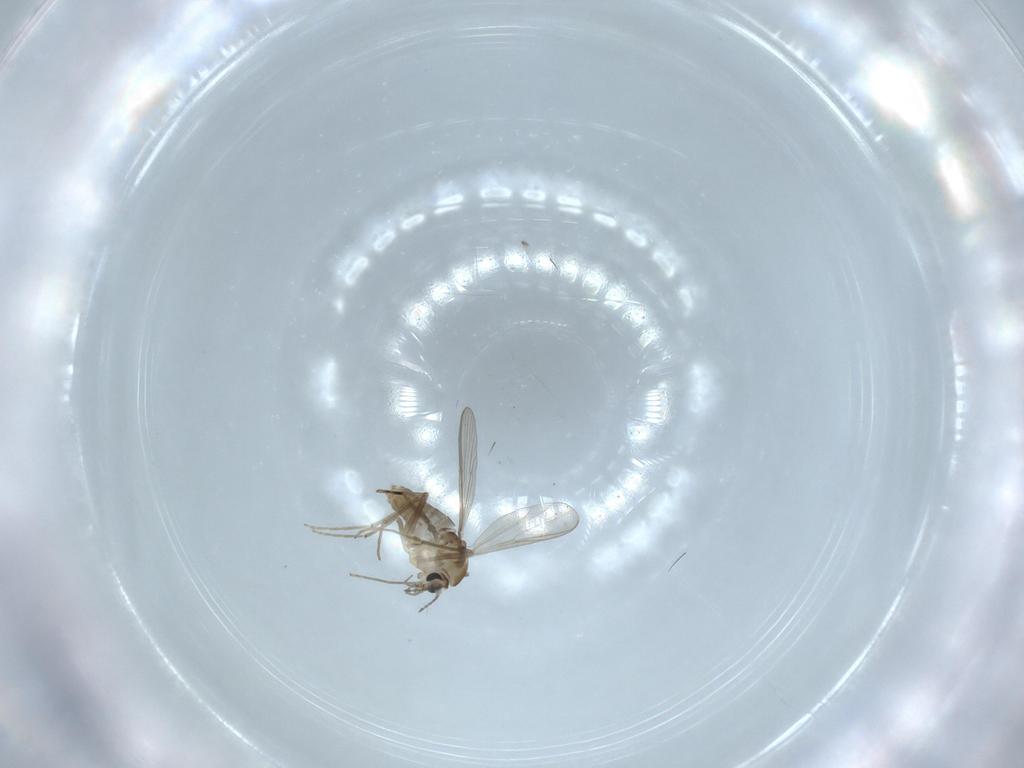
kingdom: Animalia
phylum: Arthropoda
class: Insecta
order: Diptera
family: Chironomidae
